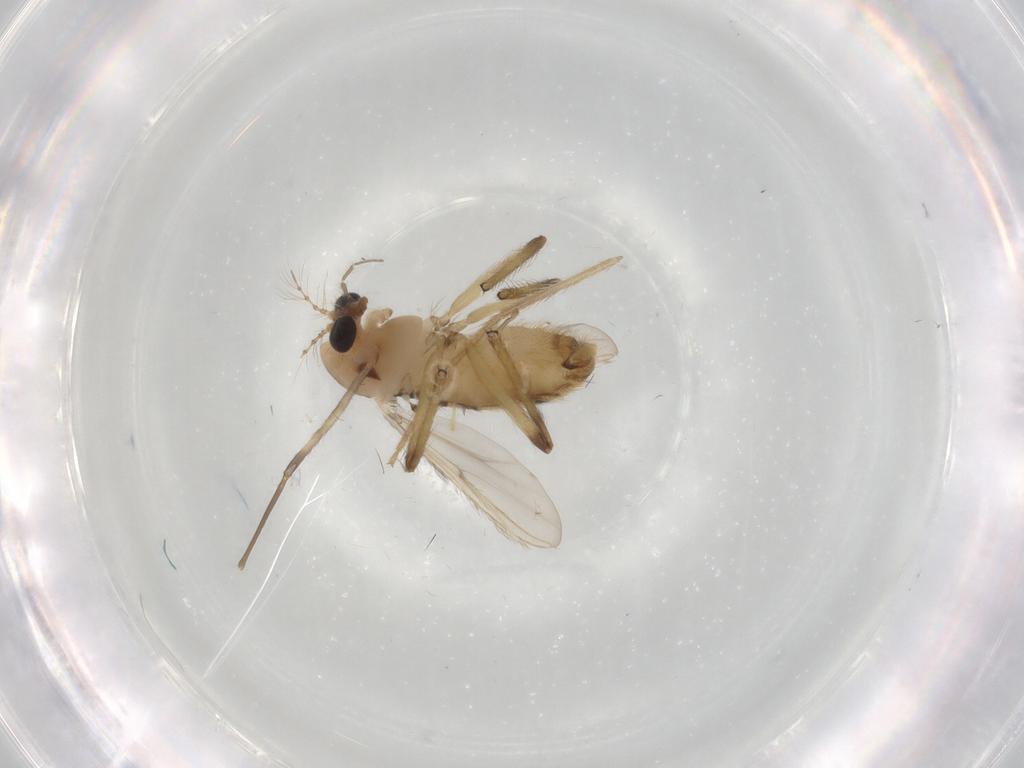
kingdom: Animalia
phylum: Arthropoda
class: Insecta
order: Diptera
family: Chironomidae
